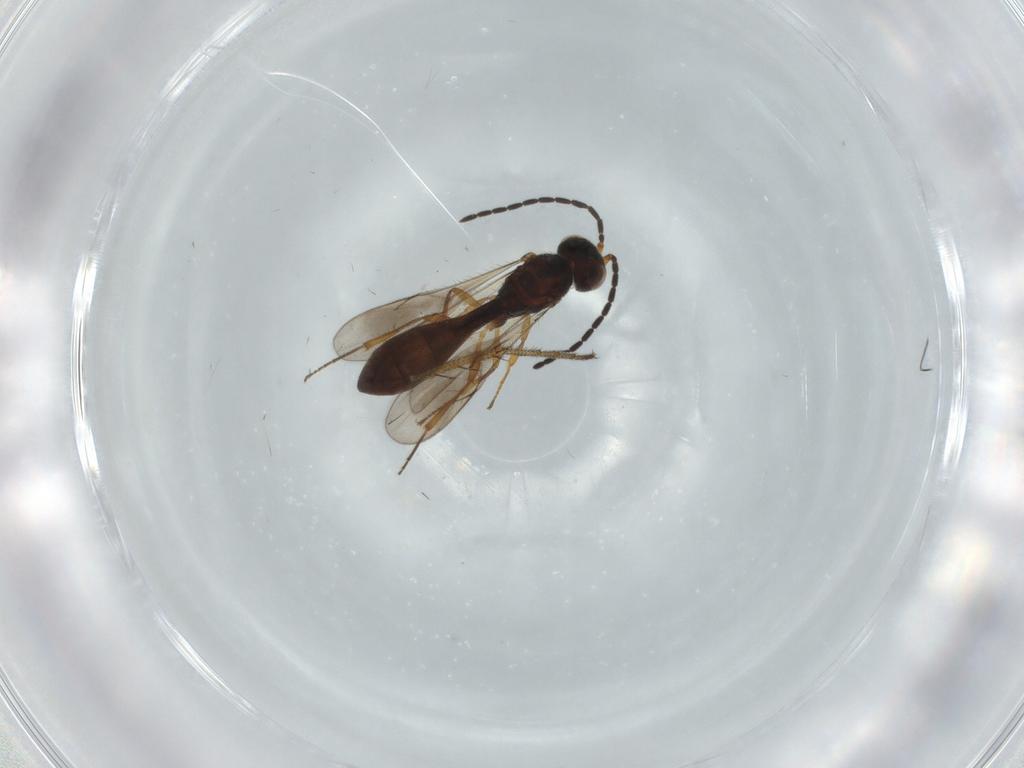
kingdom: Animalia
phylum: Arthropoda
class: Insecta
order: Hymenoptera
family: Scelionidae
